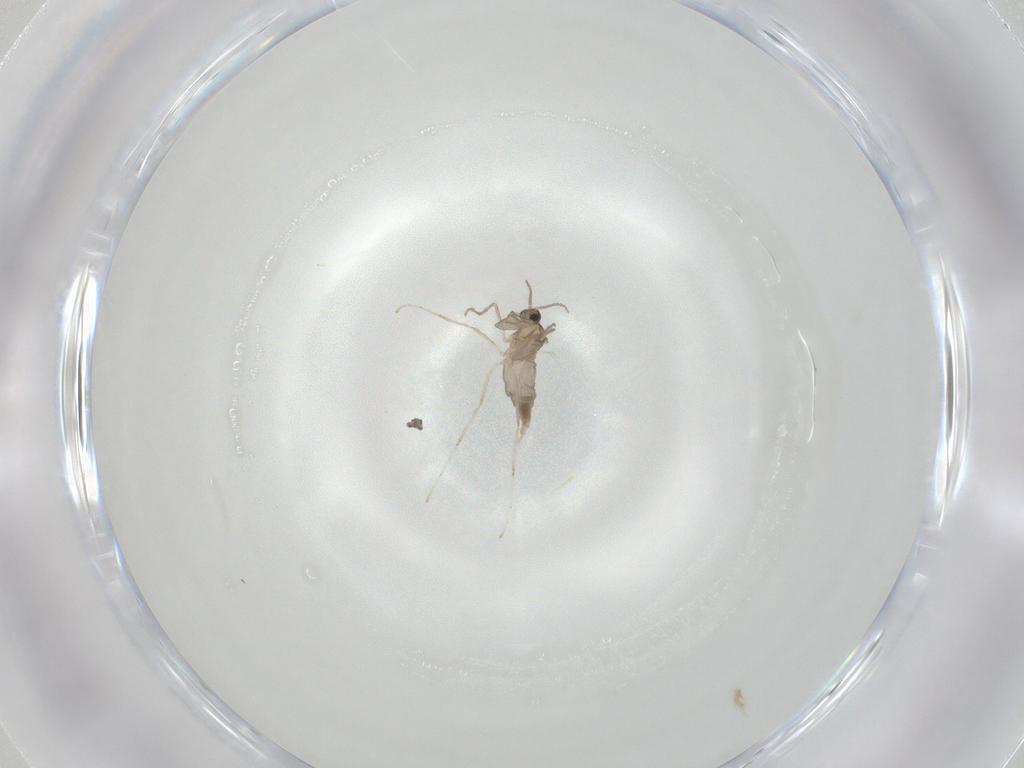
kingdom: Animalia
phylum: Arthropoda
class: Insecta
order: Diptera
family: Cecidomyiidae
